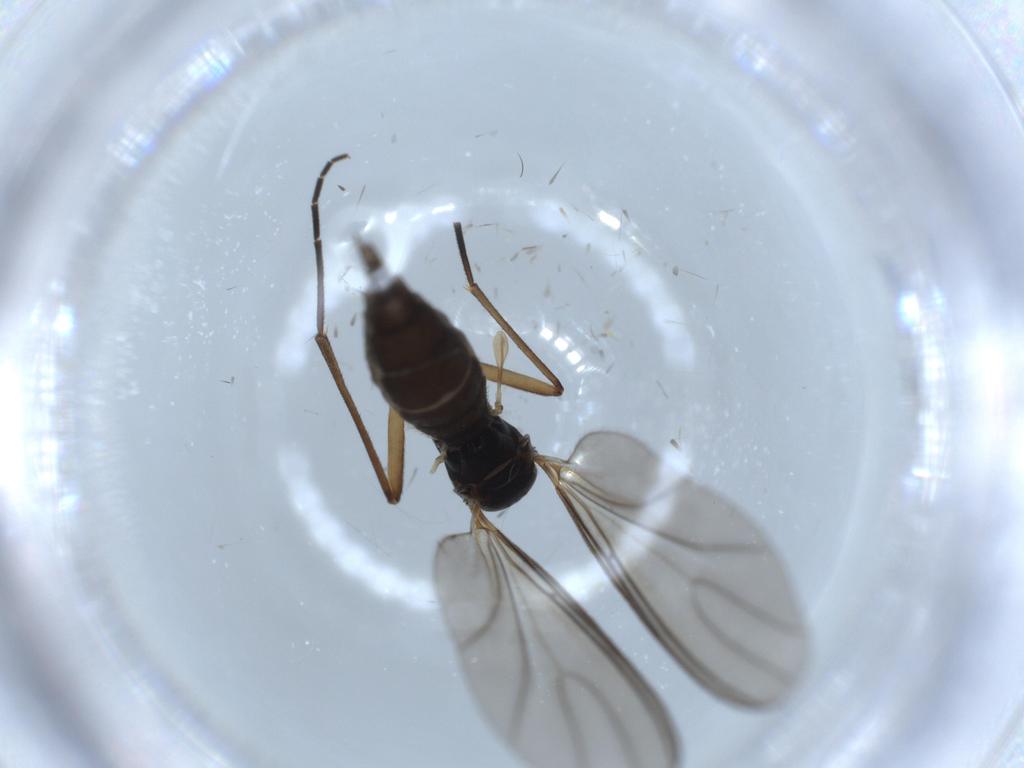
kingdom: Animalia
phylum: Arthropoda
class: Insecta
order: Diptera
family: Sciaridae
